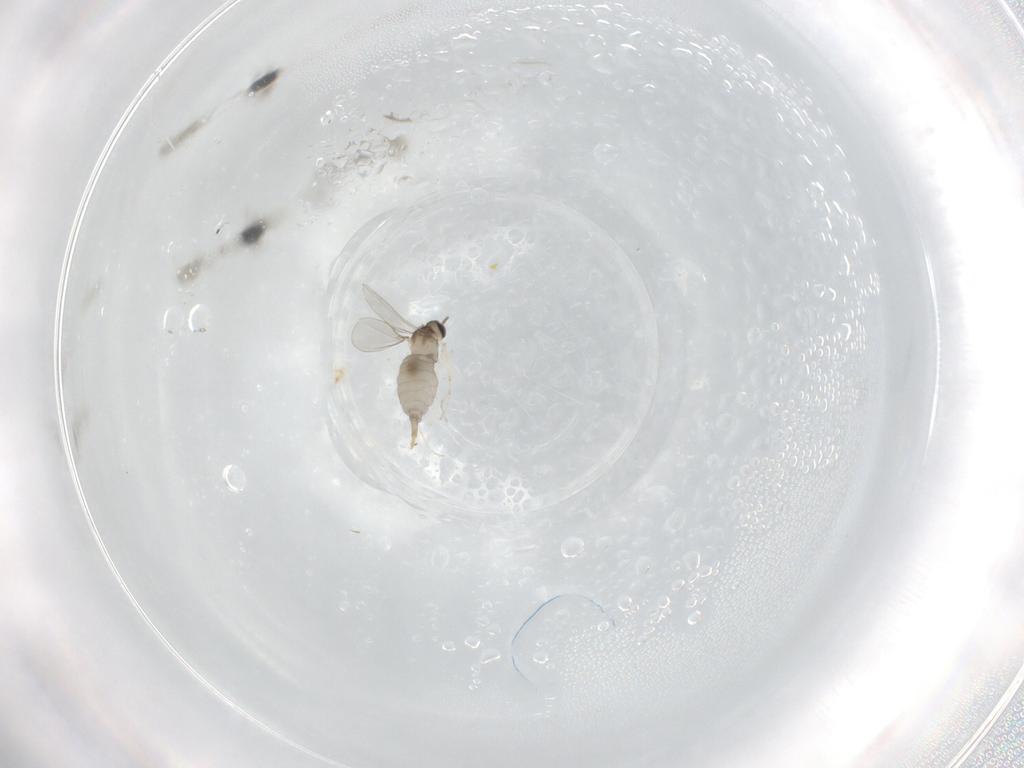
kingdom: Animalia
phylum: Arthropoda
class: Insecta
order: Diptera
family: Cecidomyiidae
